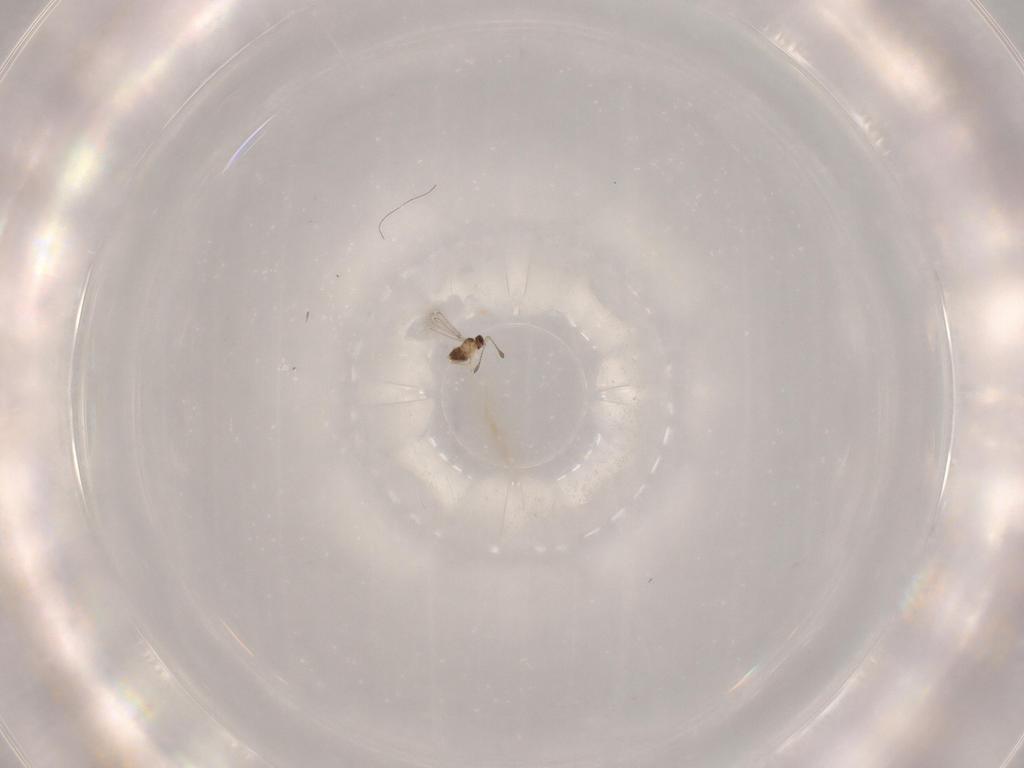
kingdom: Animalia
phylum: Arthropoda
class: Insecta
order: Hymenoptera
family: Mymaridae
